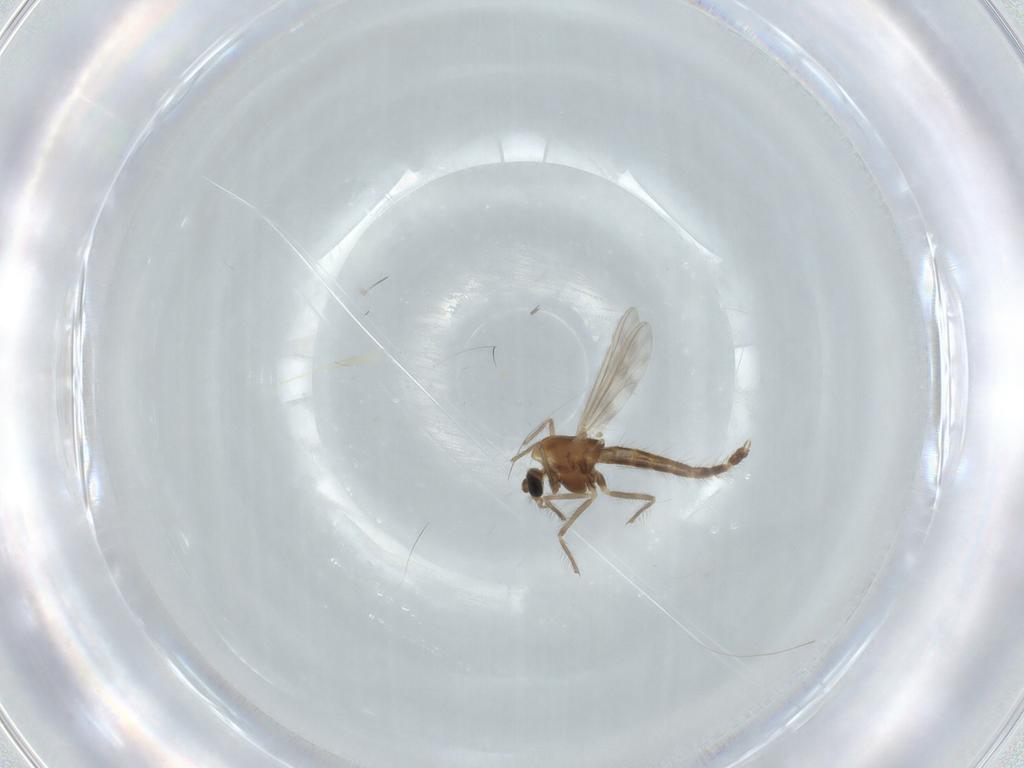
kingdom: Animalia
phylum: Arthropoda
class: Insecta
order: Diptera
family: Chironomidae
